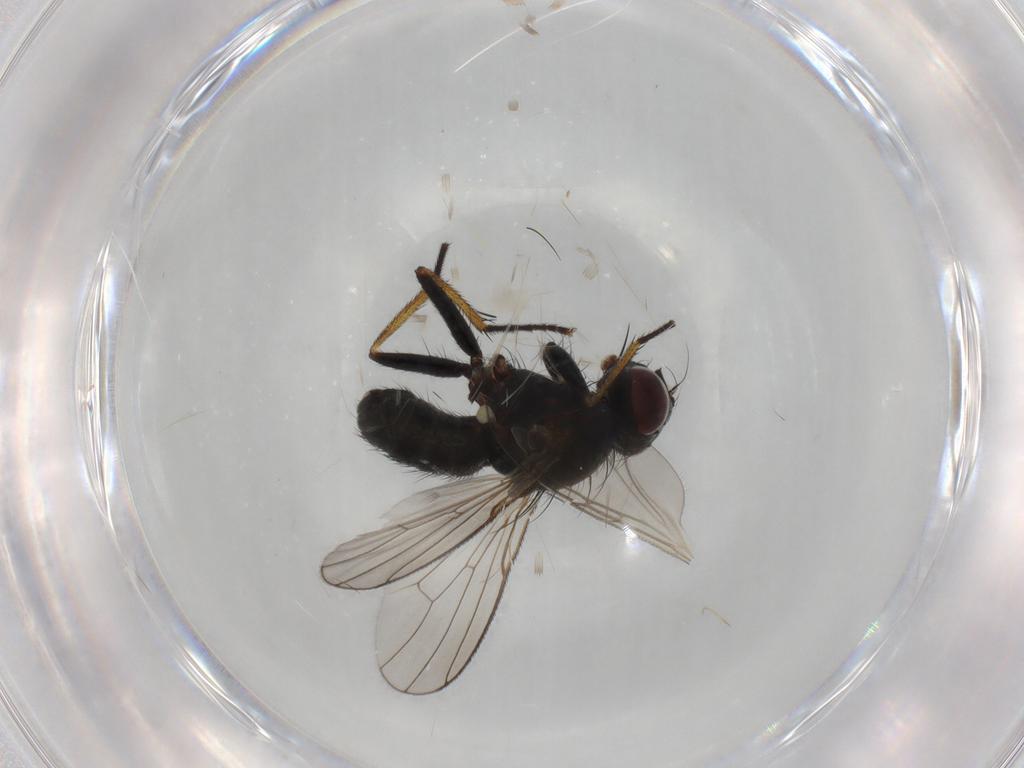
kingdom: Animalia
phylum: Arthropoda
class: Insecta
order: Diptera
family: Muscidae
